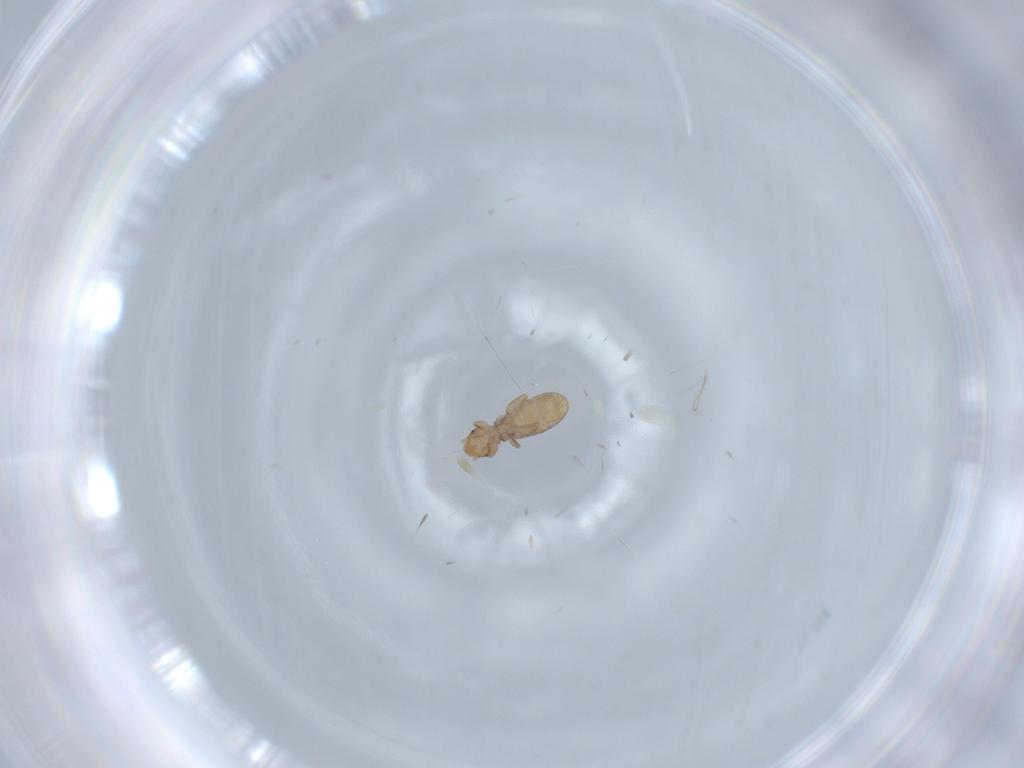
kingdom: Animalia
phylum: Arthropoda
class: Insecta
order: Psocodea
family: Liposcelididae
